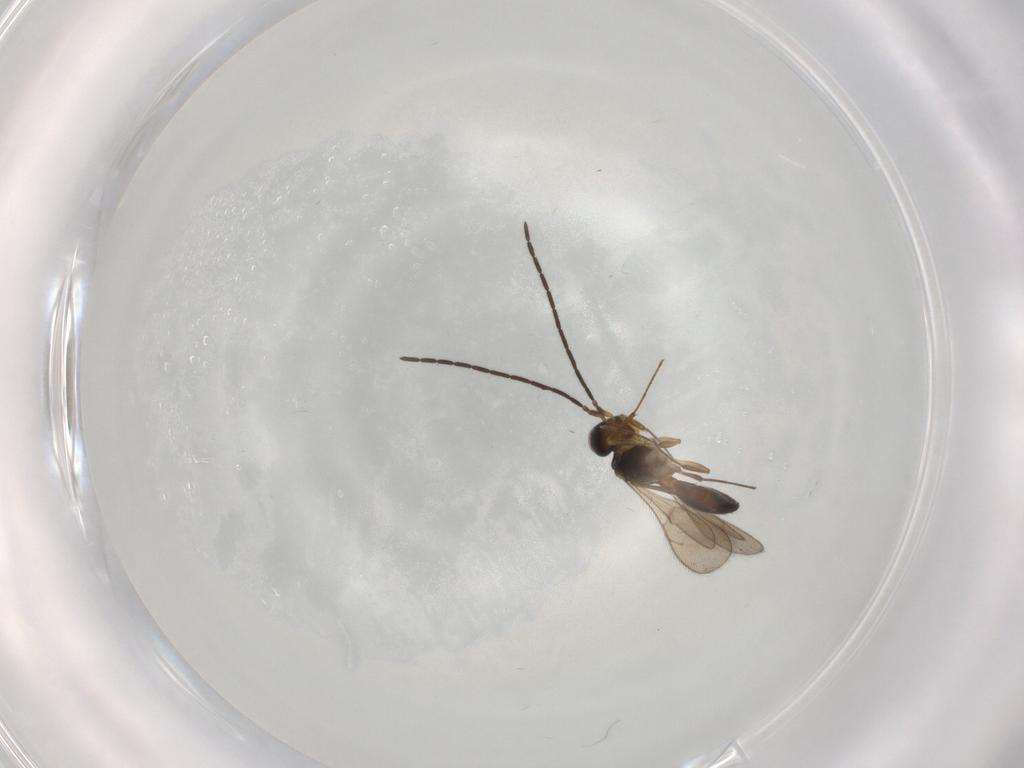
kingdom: Animalia
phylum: Arthropoda
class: Insecta
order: Hymenoptera
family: Scelionidae
